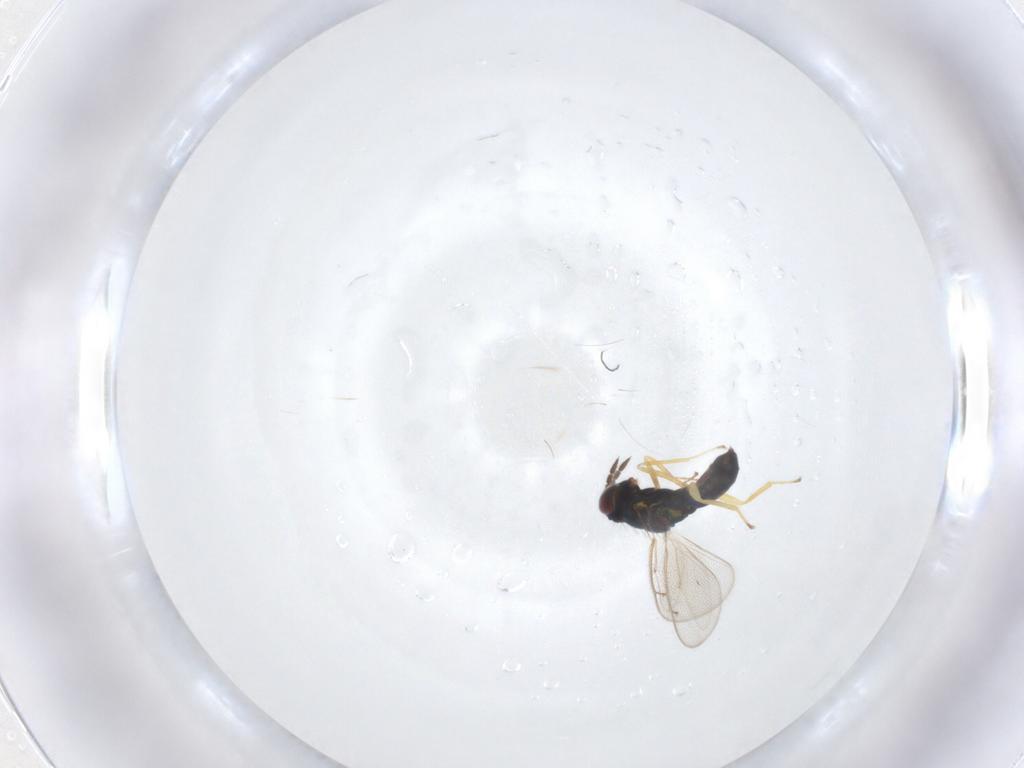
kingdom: Animalia
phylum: Arthropoda
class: Insecta
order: Hymenoptera
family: Eulophidae
